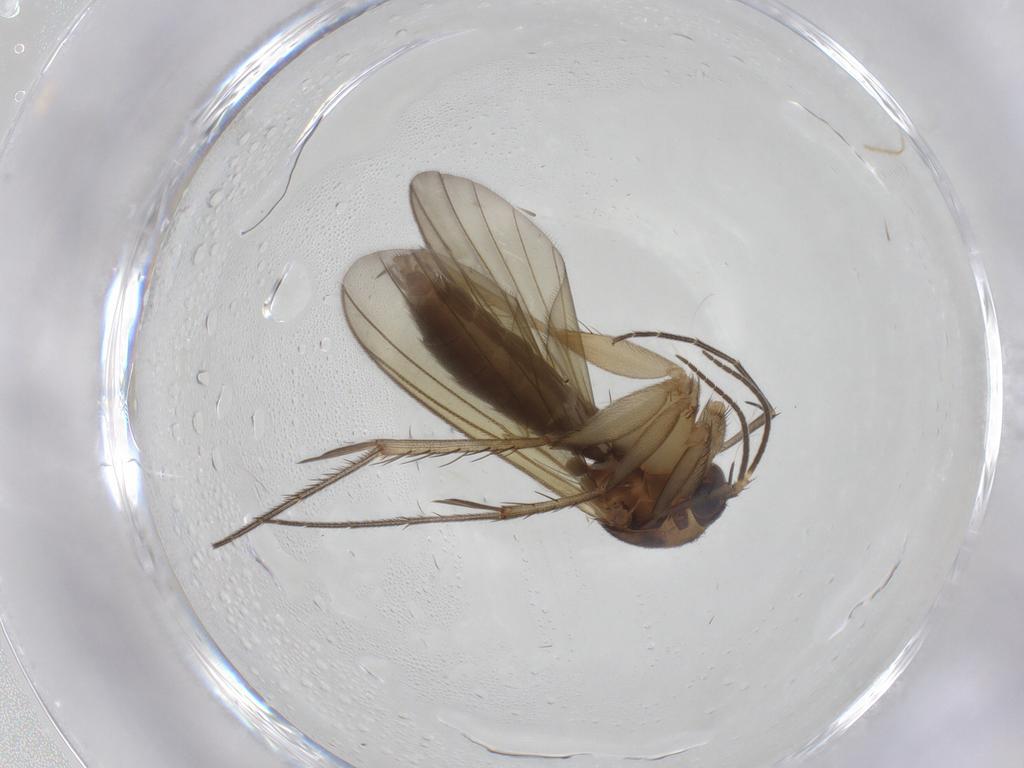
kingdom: Animalia
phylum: Arthropoda
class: Insecta
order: Diptera
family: Mycetophilidae
